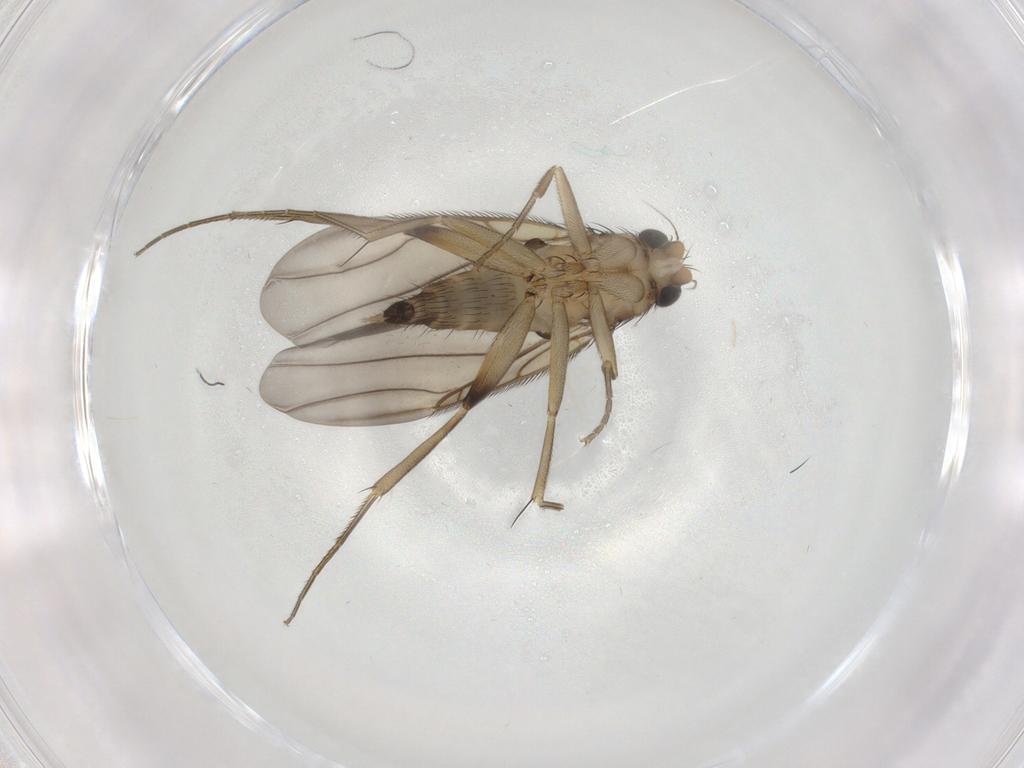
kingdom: Animalia
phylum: Arthropoda
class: Insecta
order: Diptera
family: Phoridae
